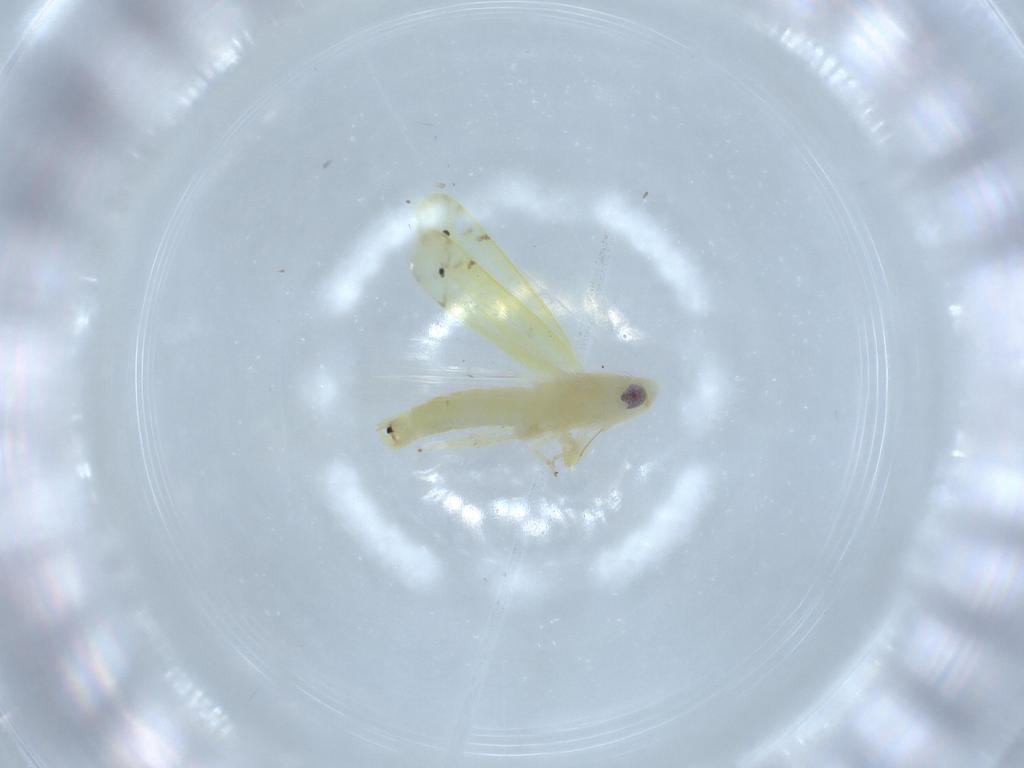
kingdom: Animalia
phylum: Arthropoda
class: Insecta
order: Hemiptera
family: Cicadellidae
